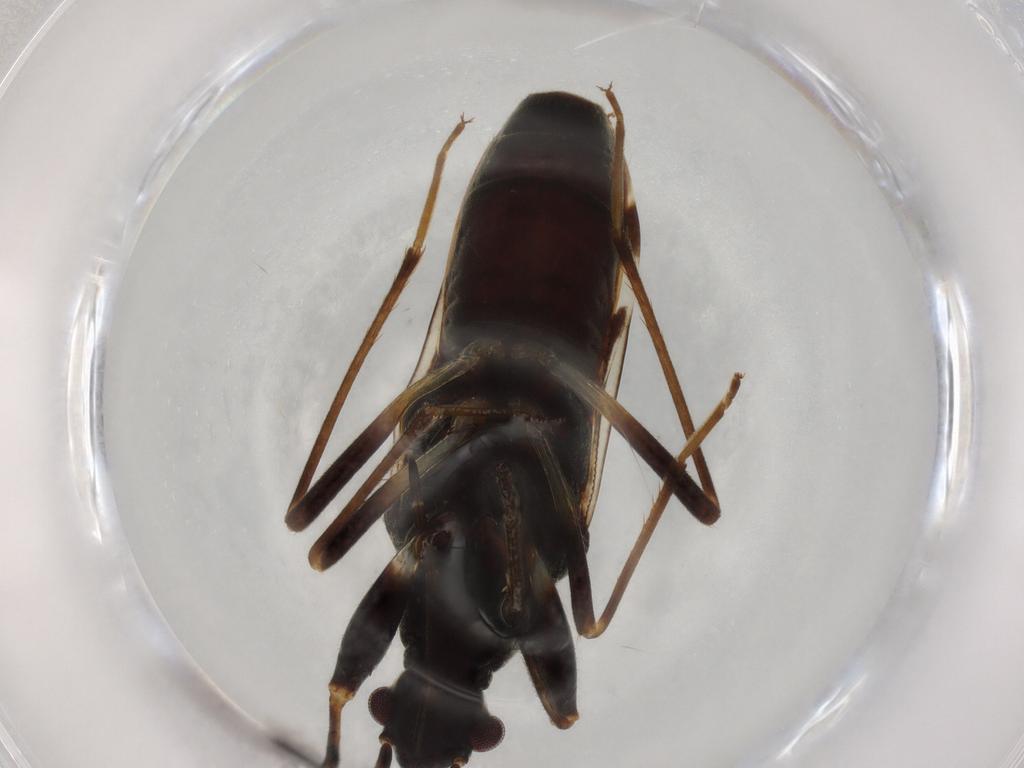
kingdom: Animalia
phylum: Arthropoda
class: Insecta
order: Hemiptera
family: Rhyparochromidae
